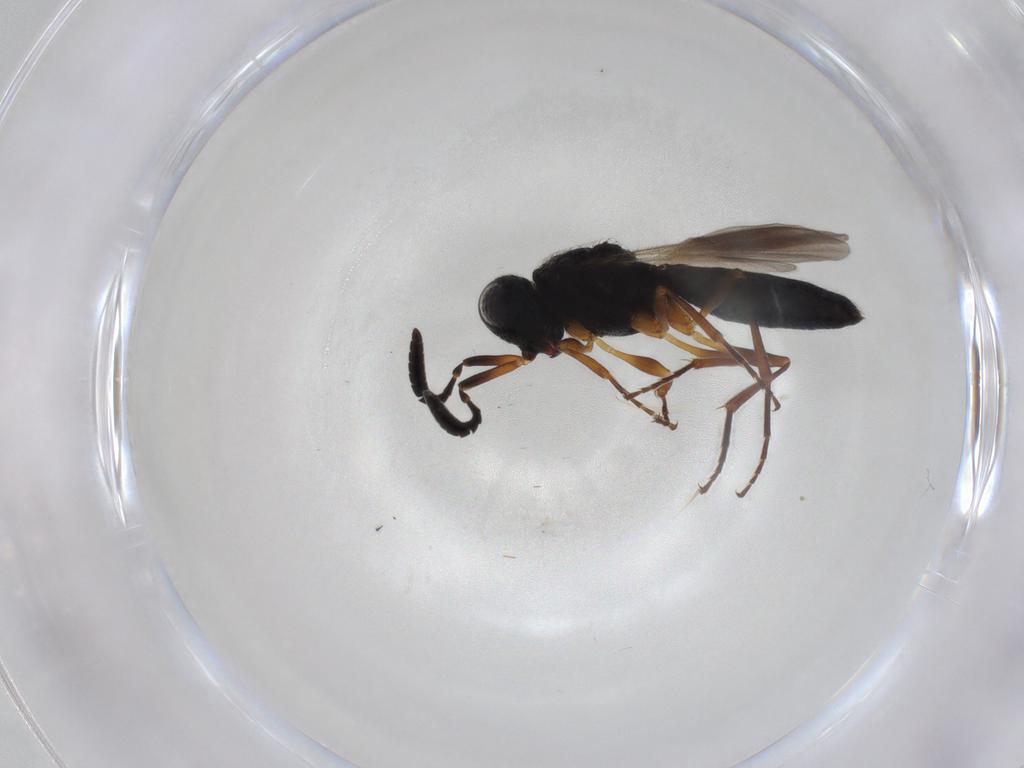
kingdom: Animalia
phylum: Arthropoda
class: Insecta
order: Hymenoptera
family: Scelionidae
